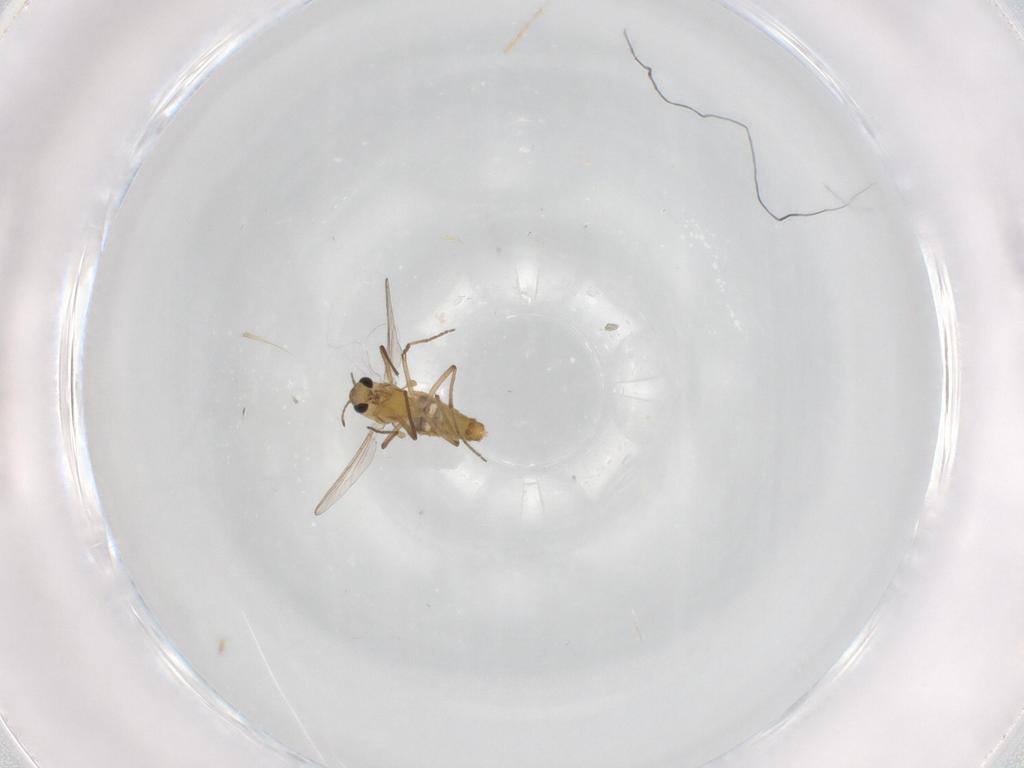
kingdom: Animalia
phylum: Arthropoda
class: Insecta
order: Diptera
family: Chironomidae
